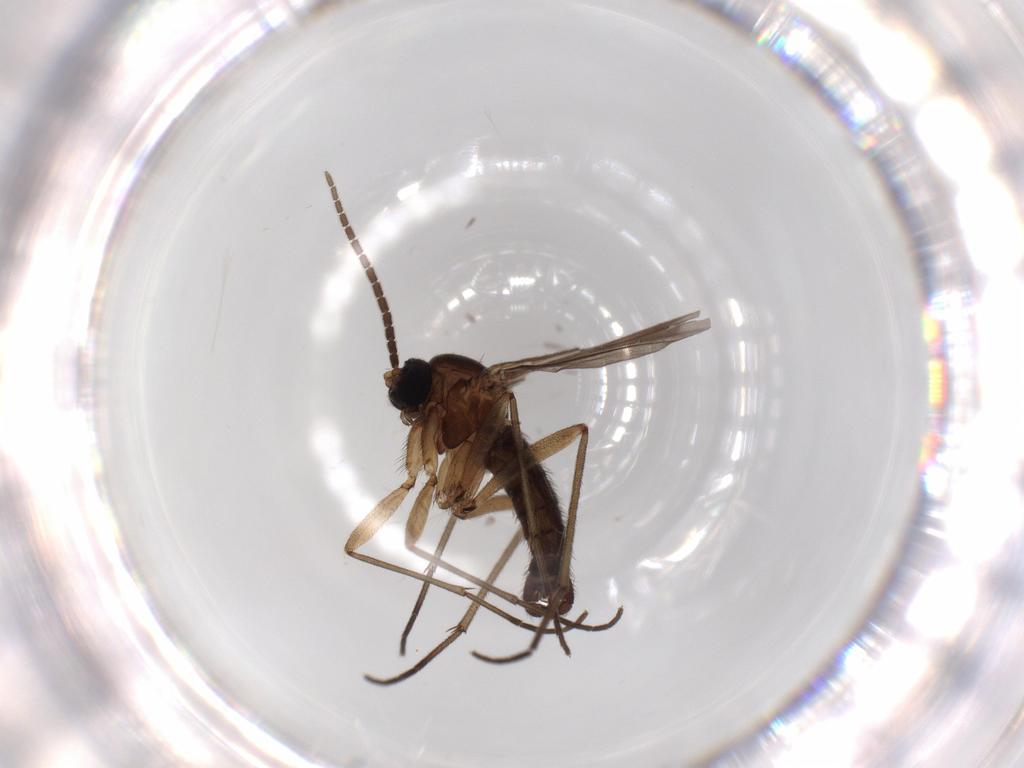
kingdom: Animalia
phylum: Arthropoda
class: Insecta
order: Diptera
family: Sciaridae
